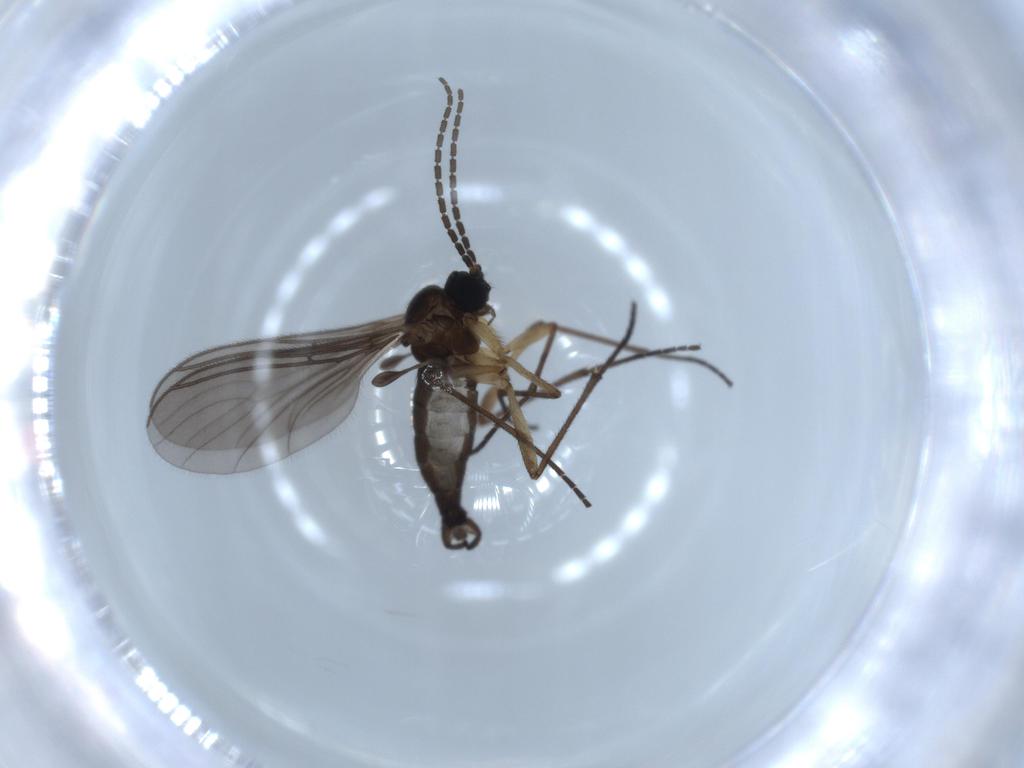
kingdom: Animalia
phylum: Arthropoda
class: Insecta
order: Diptera
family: Sciaridae
